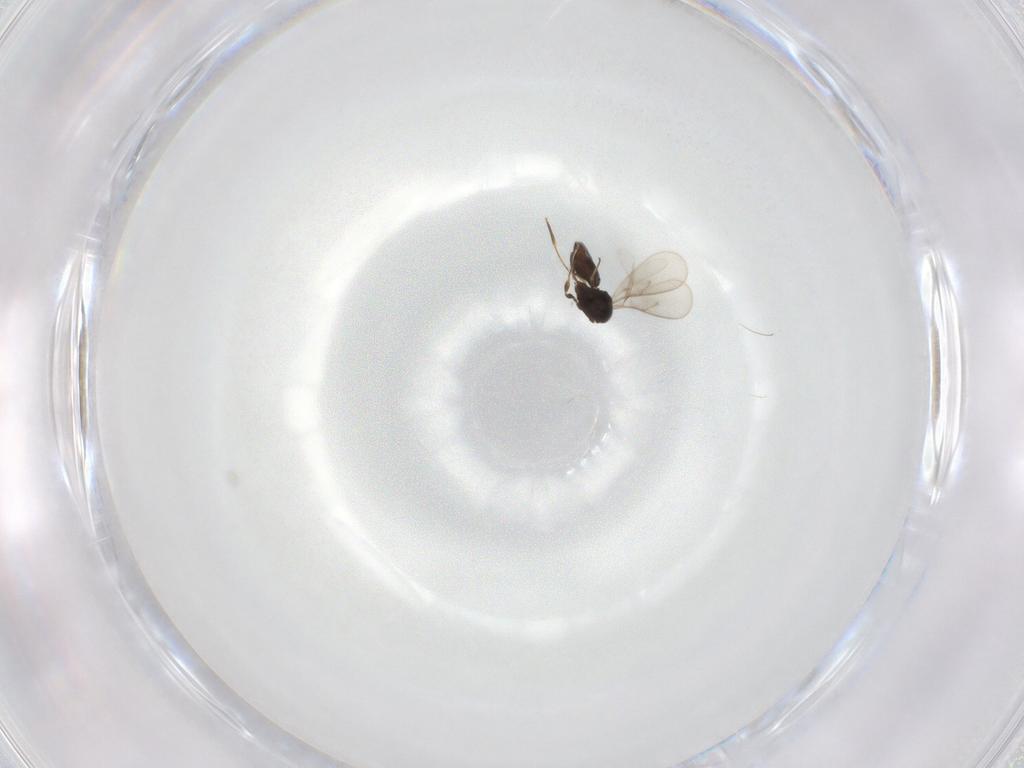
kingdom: Animalia
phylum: Arthropoda
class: Insecta
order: Hymenoptera
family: Scelionidae
